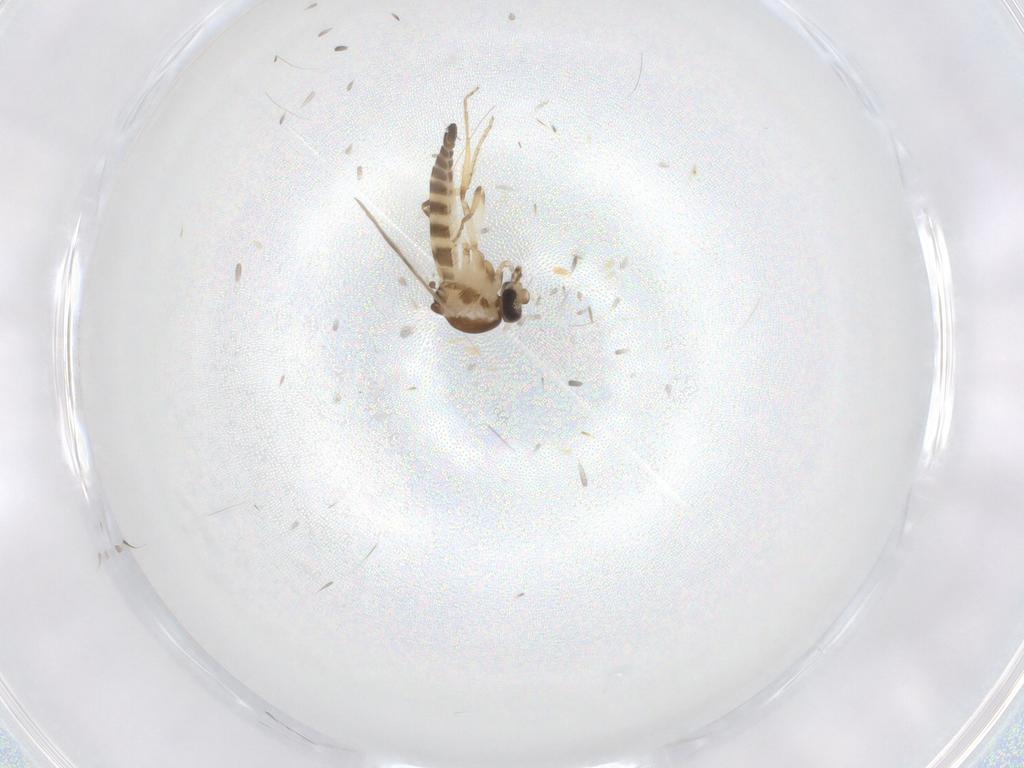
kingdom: Animalia
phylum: Arthropoda
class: Insecta
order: Diptera
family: Ceratopogonidae
